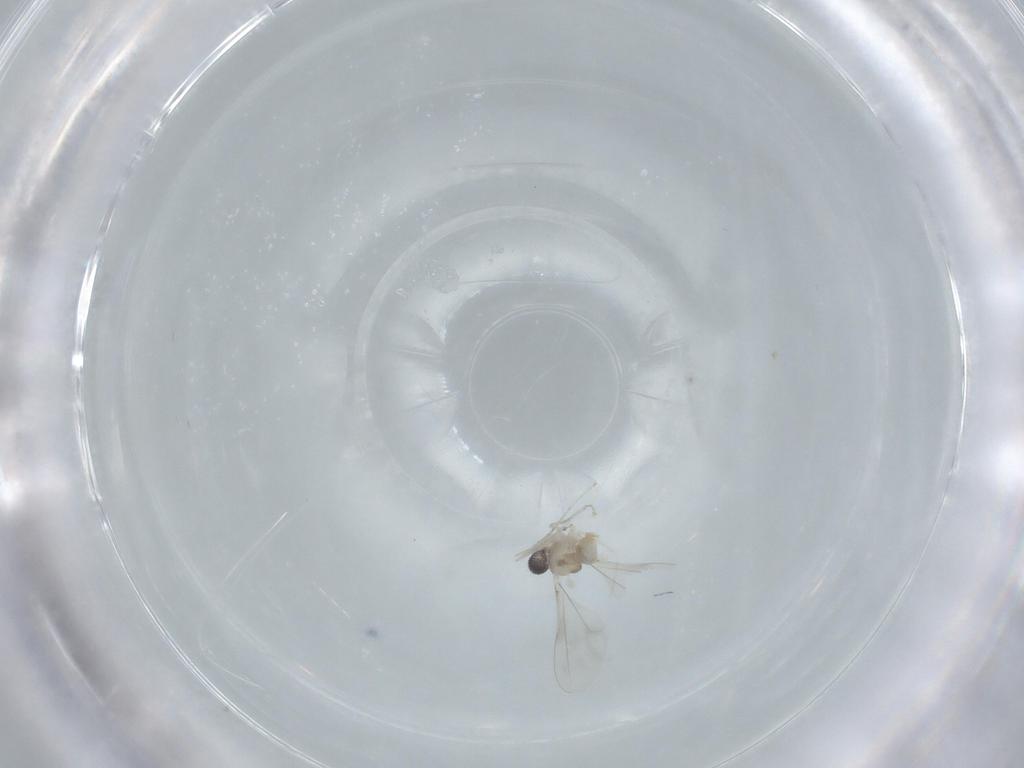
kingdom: Animalia
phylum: Arthropoda
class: Insecta
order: Diptera
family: Cecidomyiidae
